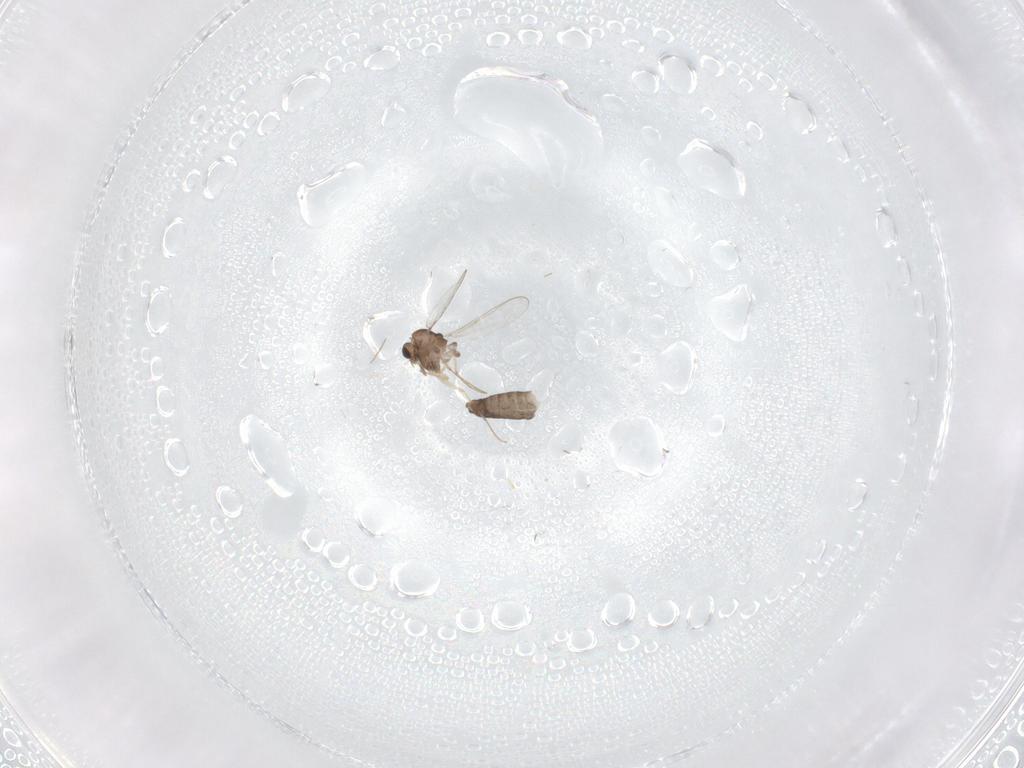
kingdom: Animalia
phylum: Arthropoda
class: Insecta
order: Diptera
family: Chironomidae
